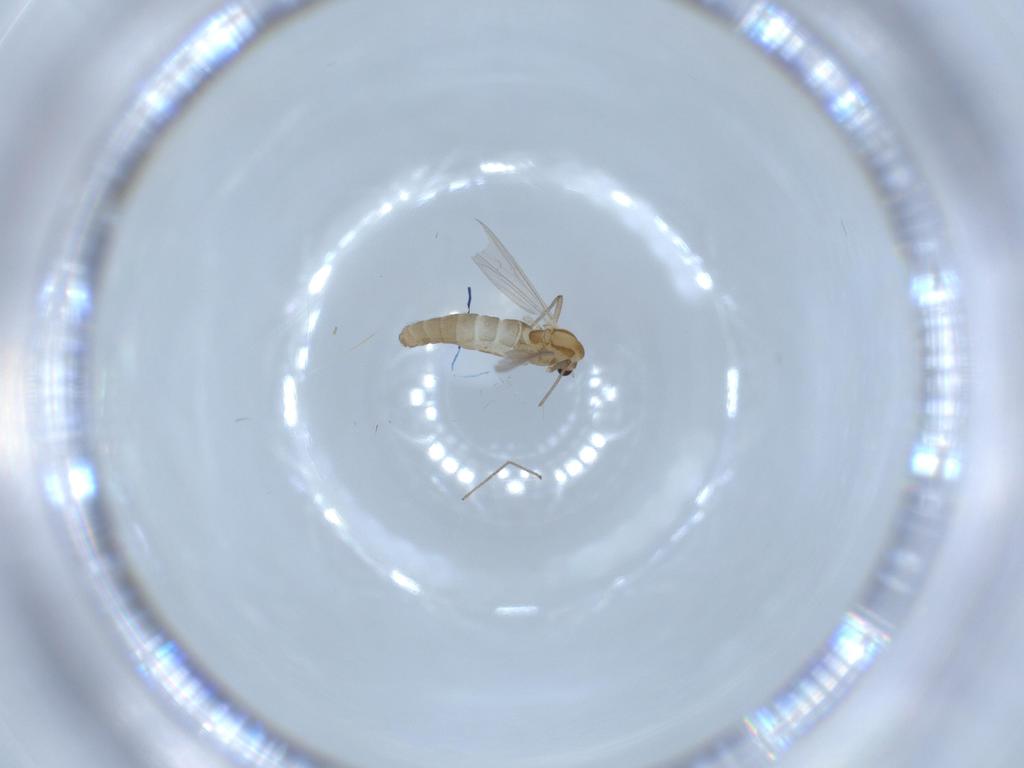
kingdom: Animalia
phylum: Arthropoda
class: Insecta
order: Diptera
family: Chironomidae
